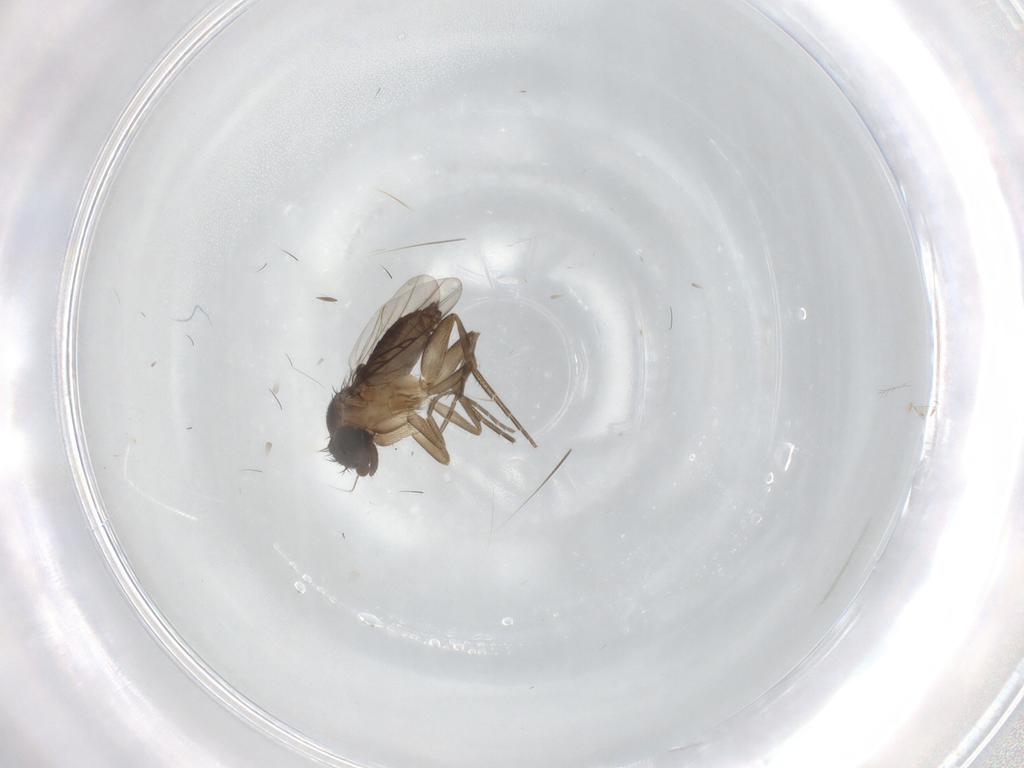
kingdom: Animalia
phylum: Arthropoda
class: Insecta
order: Diptera
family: Phoridae
